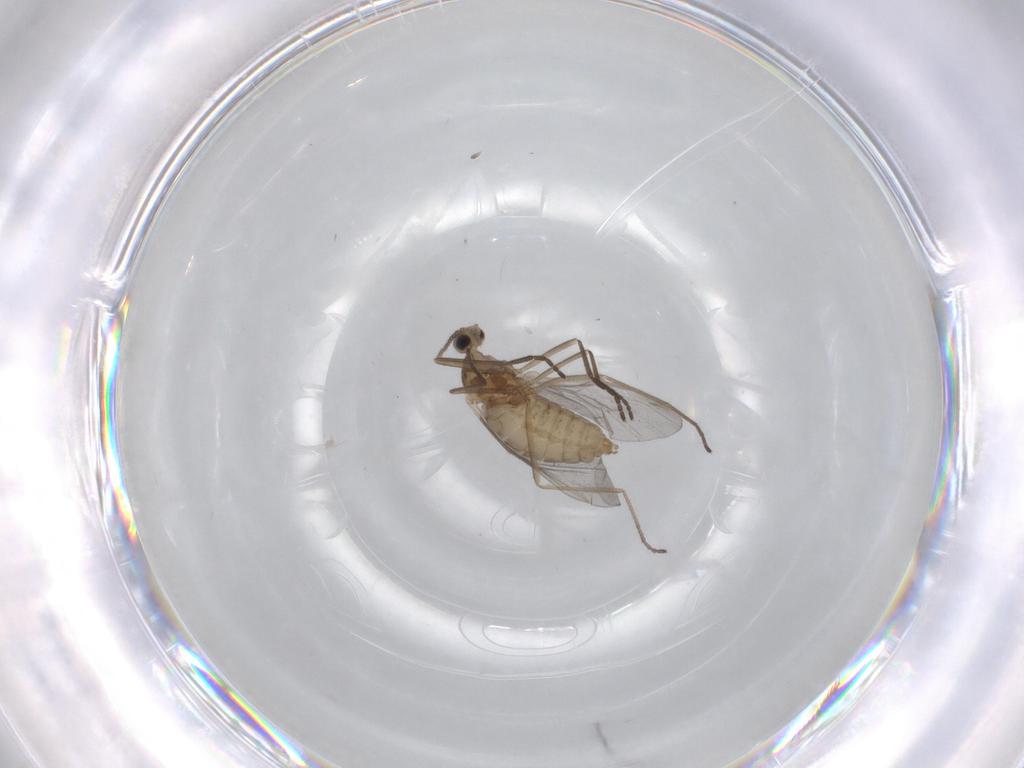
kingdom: Animalia
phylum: Arthropoda
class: Insecta
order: Diptera
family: Cecidomyiidae
